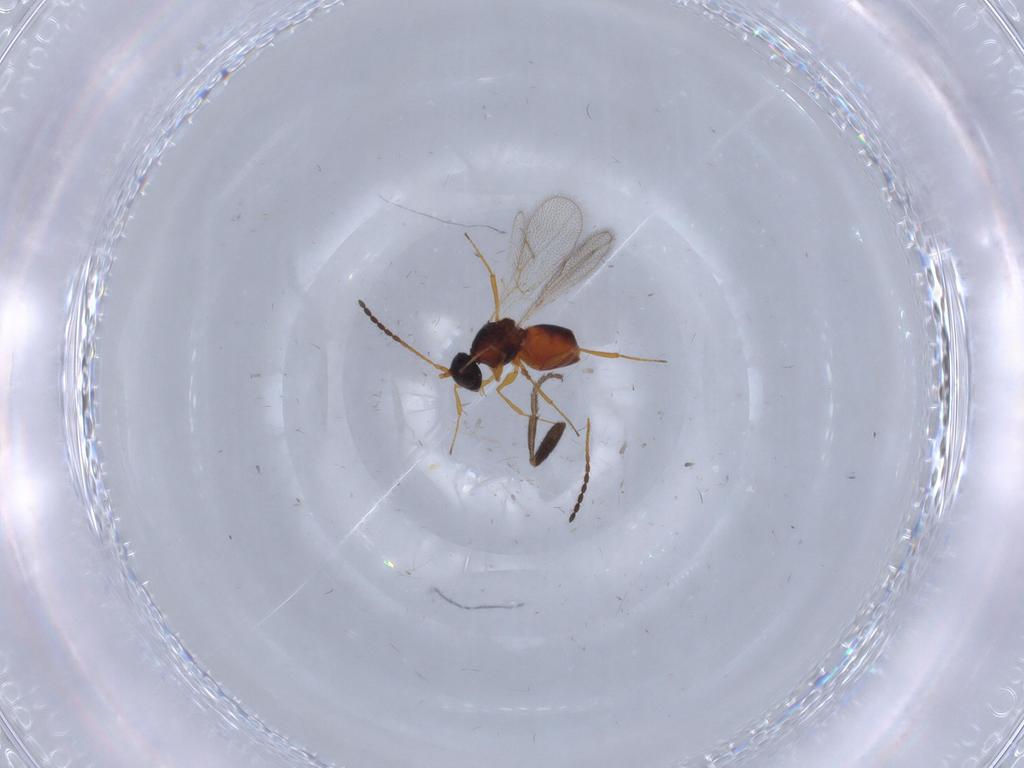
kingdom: Animalia
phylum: Arthropoda
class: Insecta
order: Hymenoptera
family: Figitidae
